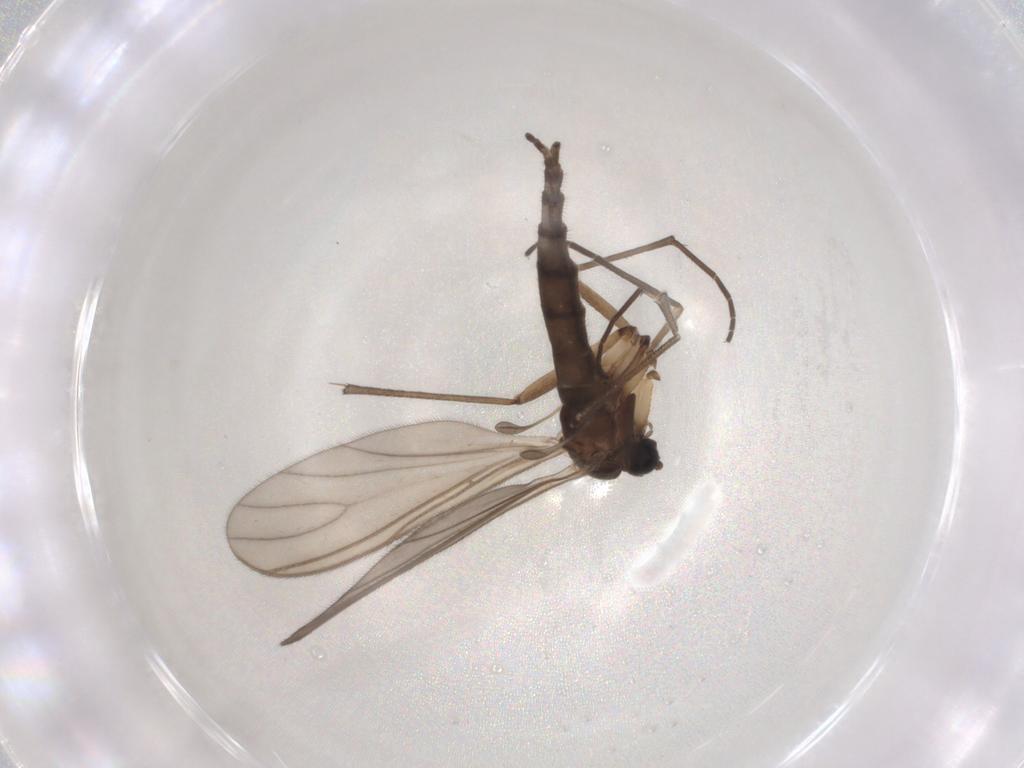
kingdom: Animalia
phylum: Arthropoda
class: Insecta
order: Diptera
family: Sciaridae
